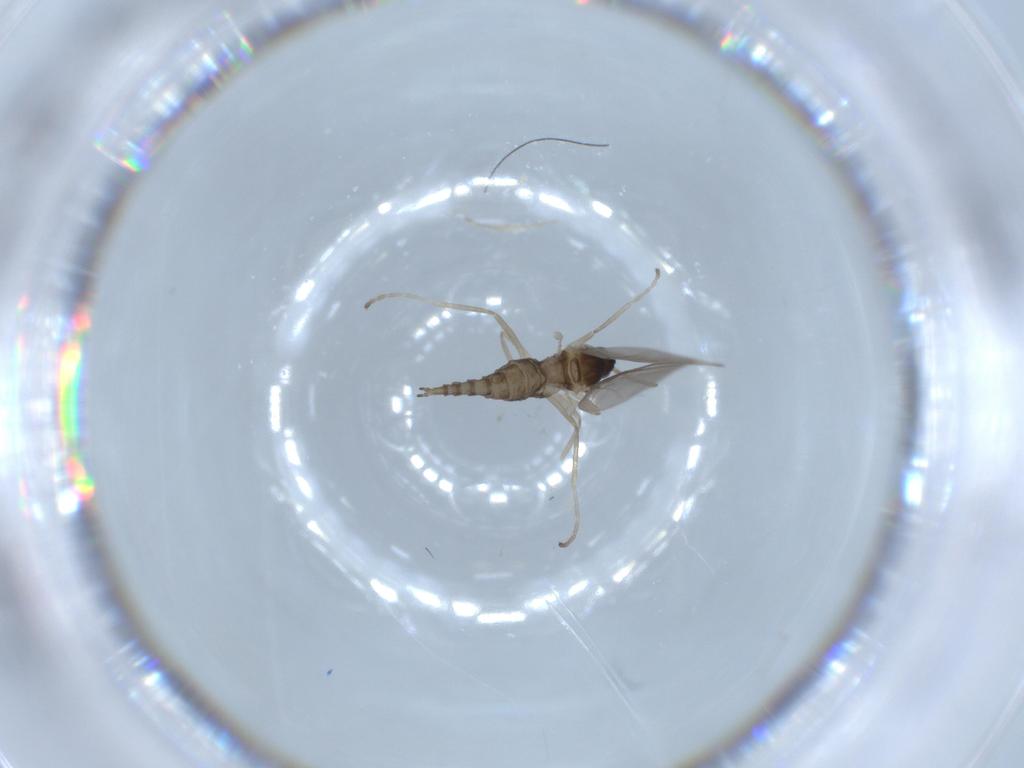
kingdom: Animalia
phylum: Arthropoda
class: Insecta
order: Diptera
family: Cecidomyiidae
